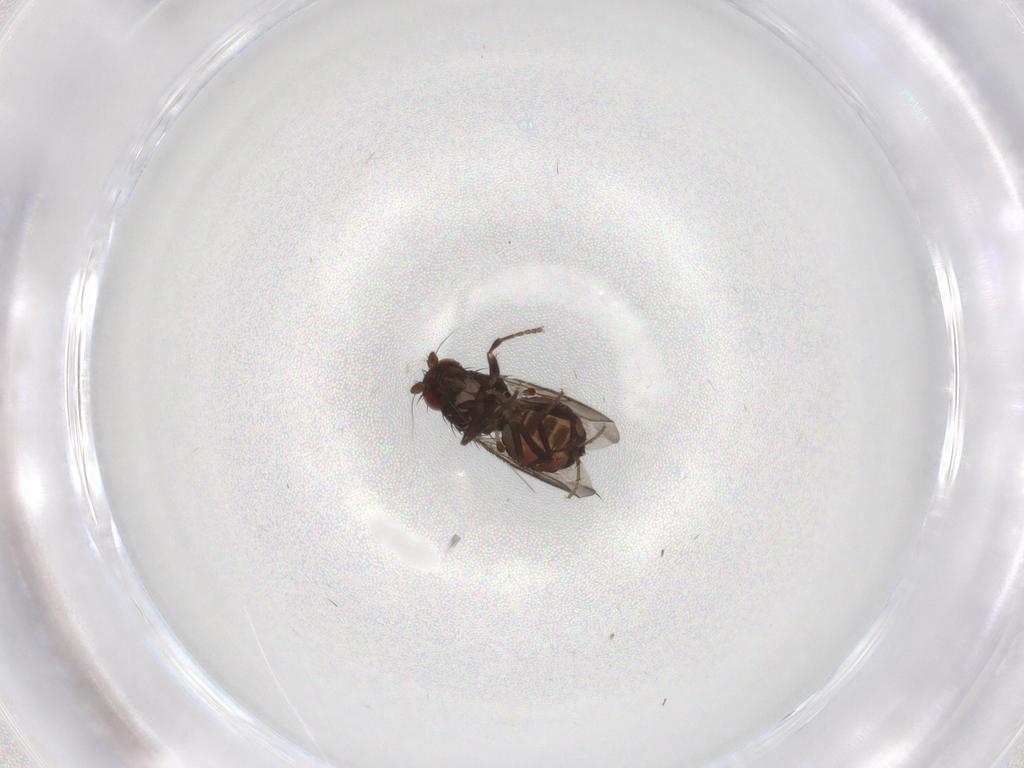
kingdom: Animalia
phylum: Arthropoda
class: Insecta
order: Diptera
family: Sphaeroceridae
